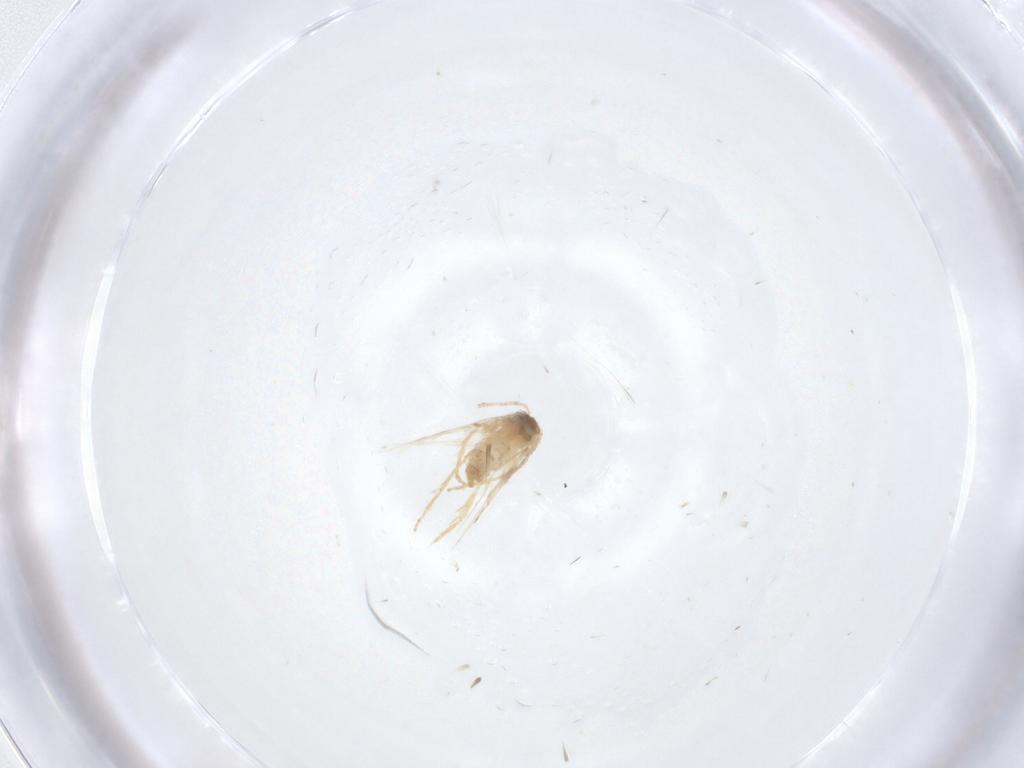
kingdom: Animalia
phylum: Arthropoda
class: Insecta
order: Lepidoptera
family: Nepticulidae
